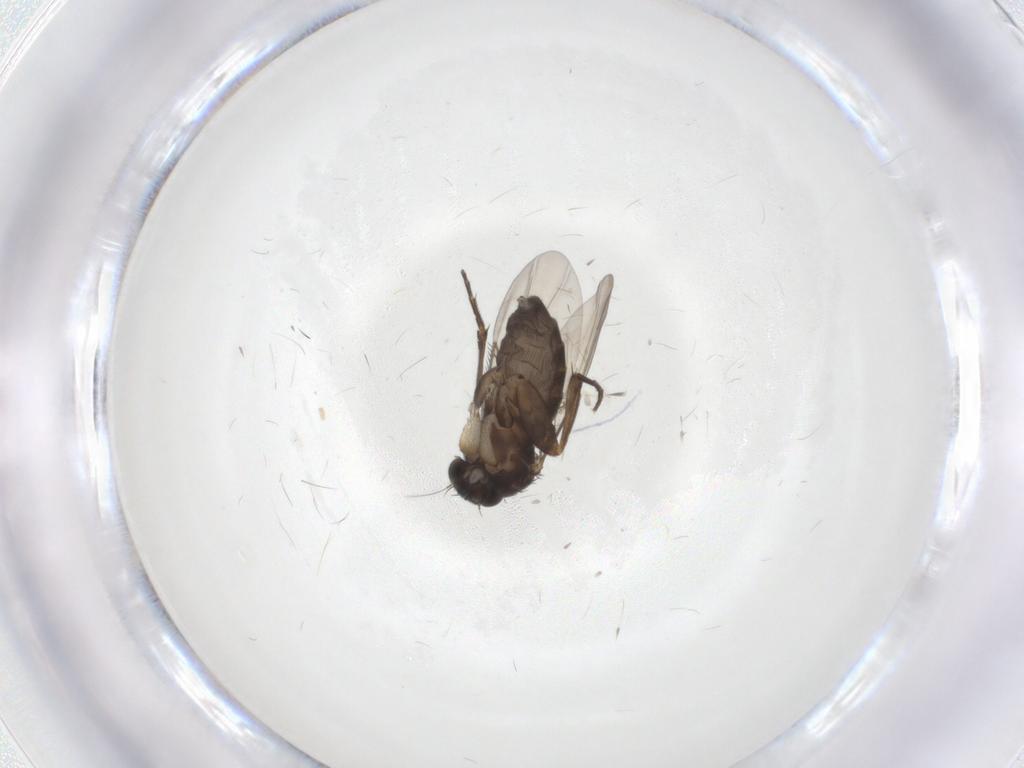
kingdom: Animalia
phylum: Arthropoda
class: Insecta
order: Diptera
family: Phoridae
